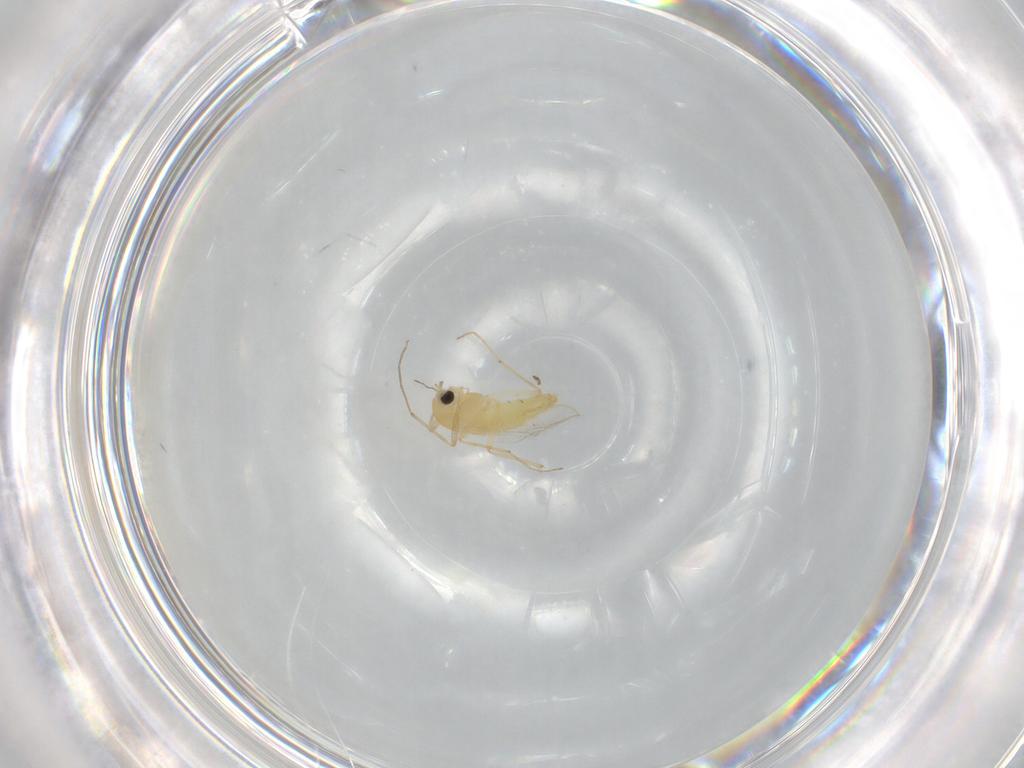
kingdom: Animalia
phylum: Arthropoda
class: Insecta
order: Diptera
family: Chironomidae
